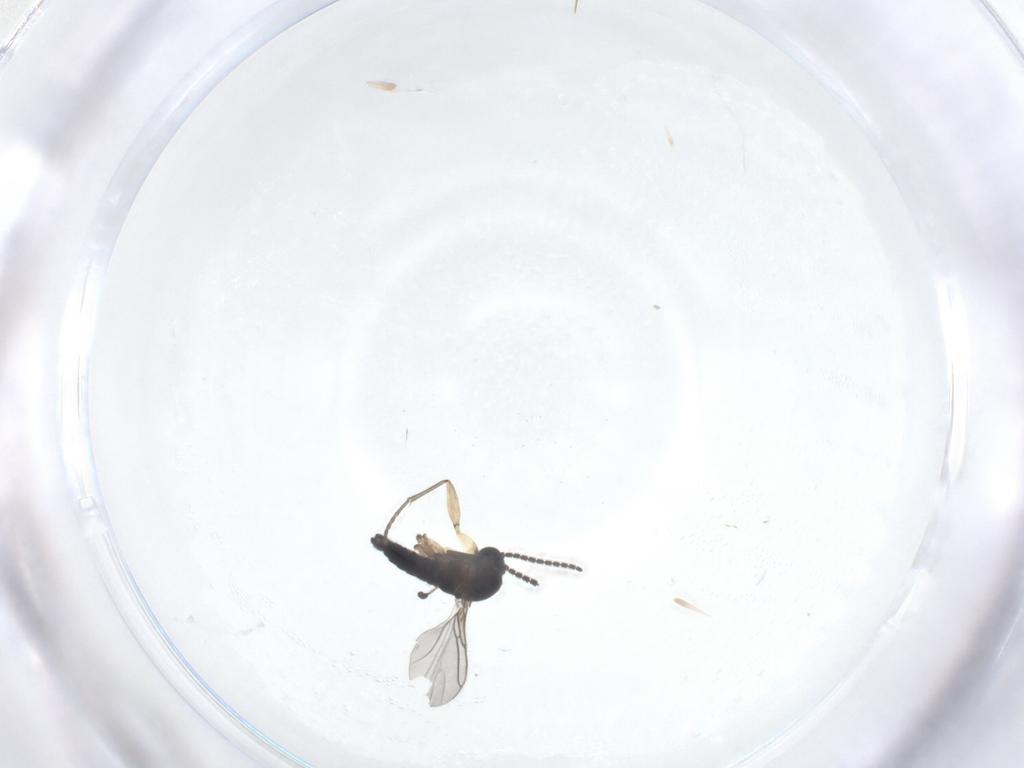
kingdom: Animalia
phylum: Arthropoda
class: Insecta
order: Diptera
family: Sciaridae
